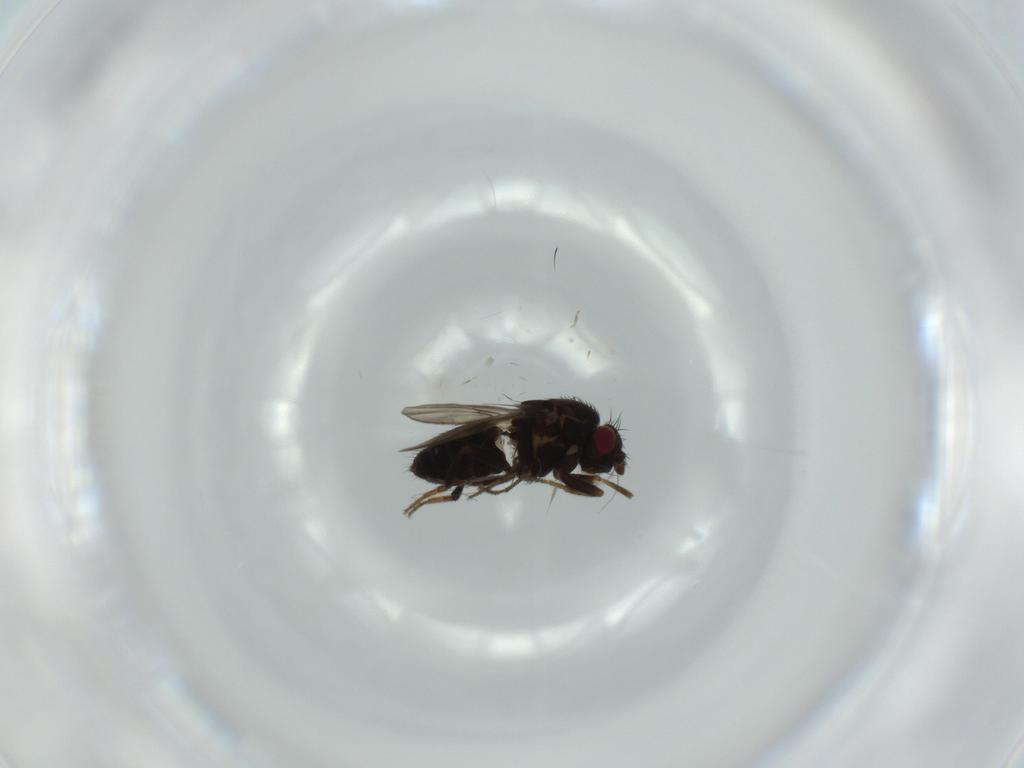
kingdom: Animalia
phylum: Arthropoda
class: Insecta
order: Diptera
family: Sphaeroceridae
